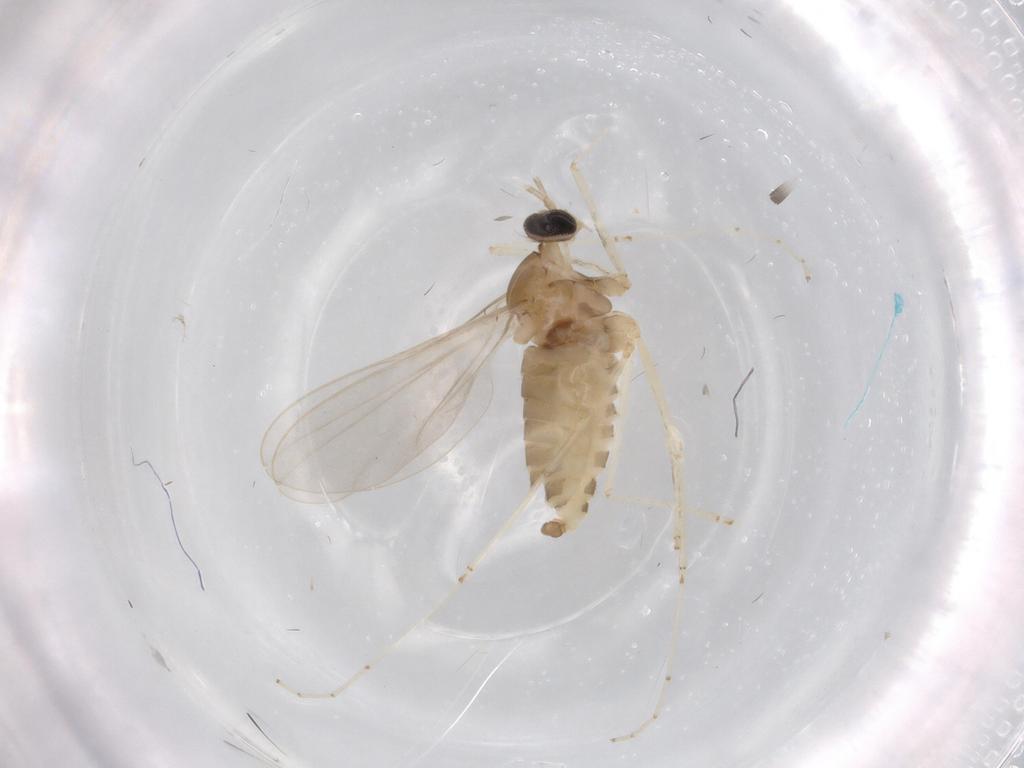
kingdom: Animalia
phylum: Arthropoda
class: Insecta
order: Diptera
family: Cecidomyiidae
